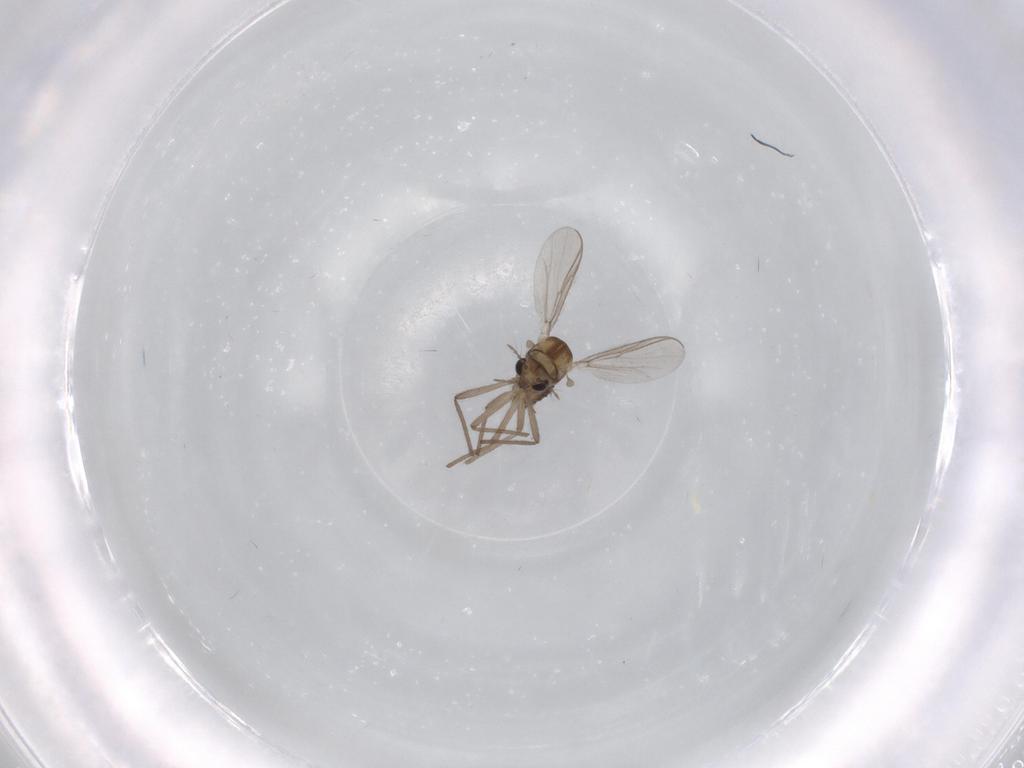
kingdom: Animalia
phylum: Arthropoda
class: Insecta
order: Diptera
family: Chironomidae
